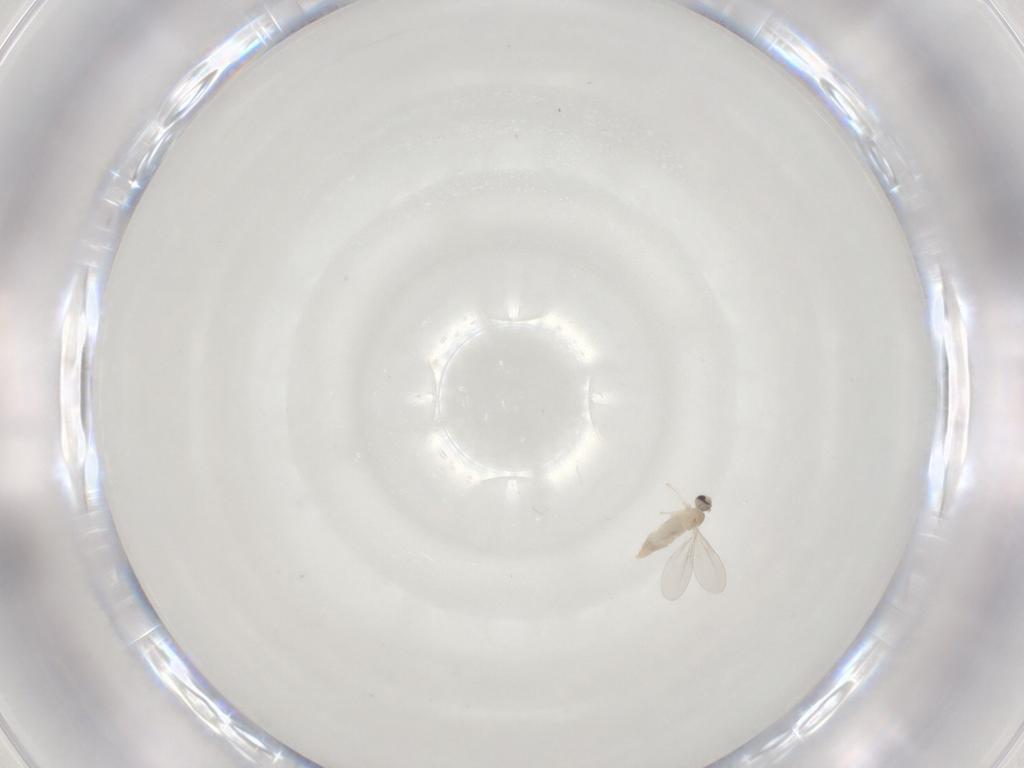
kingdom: Animalia
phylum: Arthropoda
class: Insecta
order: Diptera
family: Cecidomyiidae
